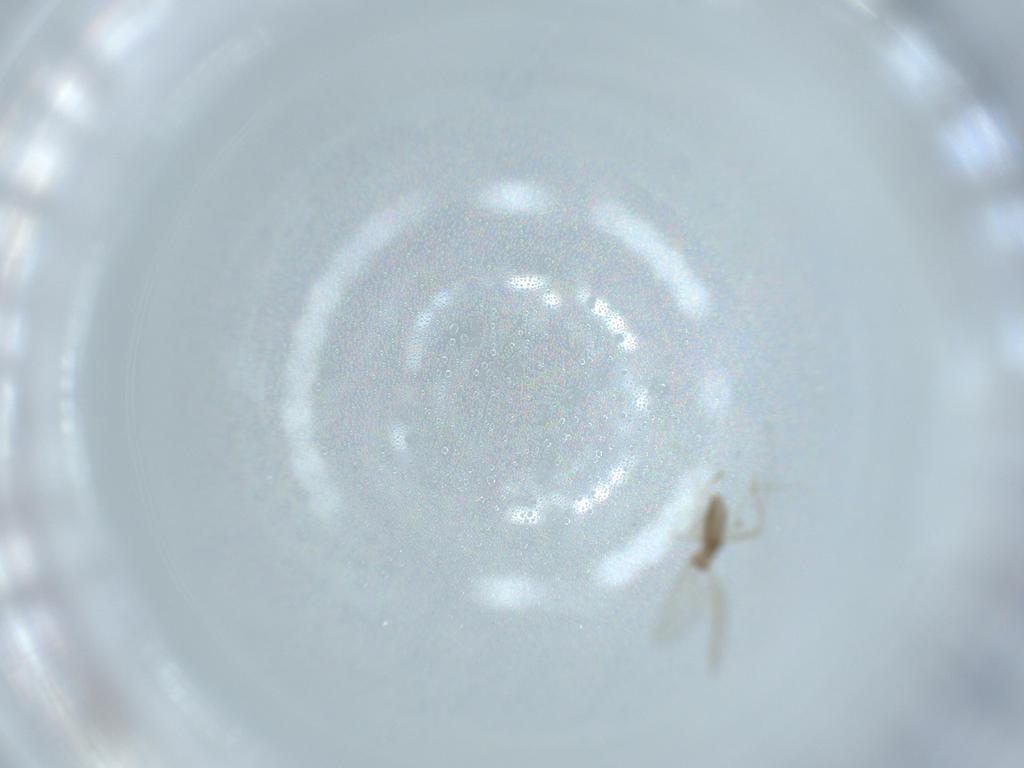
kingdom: Animalia
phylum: Arthropoda
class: Insecta
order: Diptera
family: Cecidomyiidae
